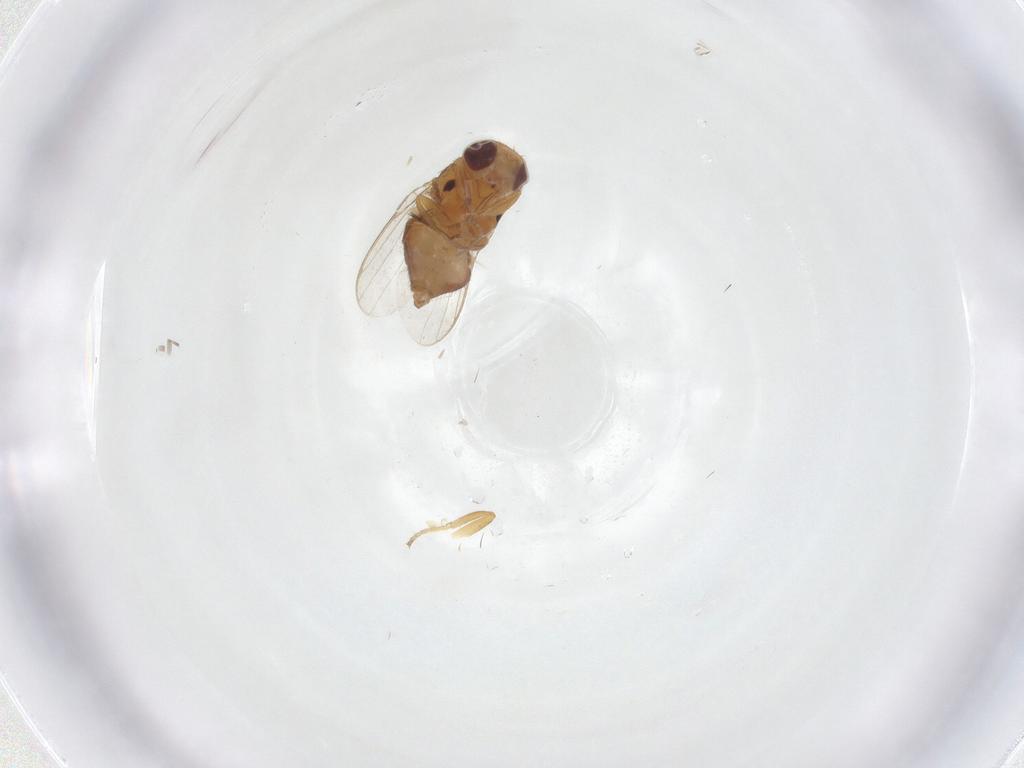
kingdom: Animalia
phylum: Arthropoda
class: Insecta
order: Diptera
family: Chloropidae
